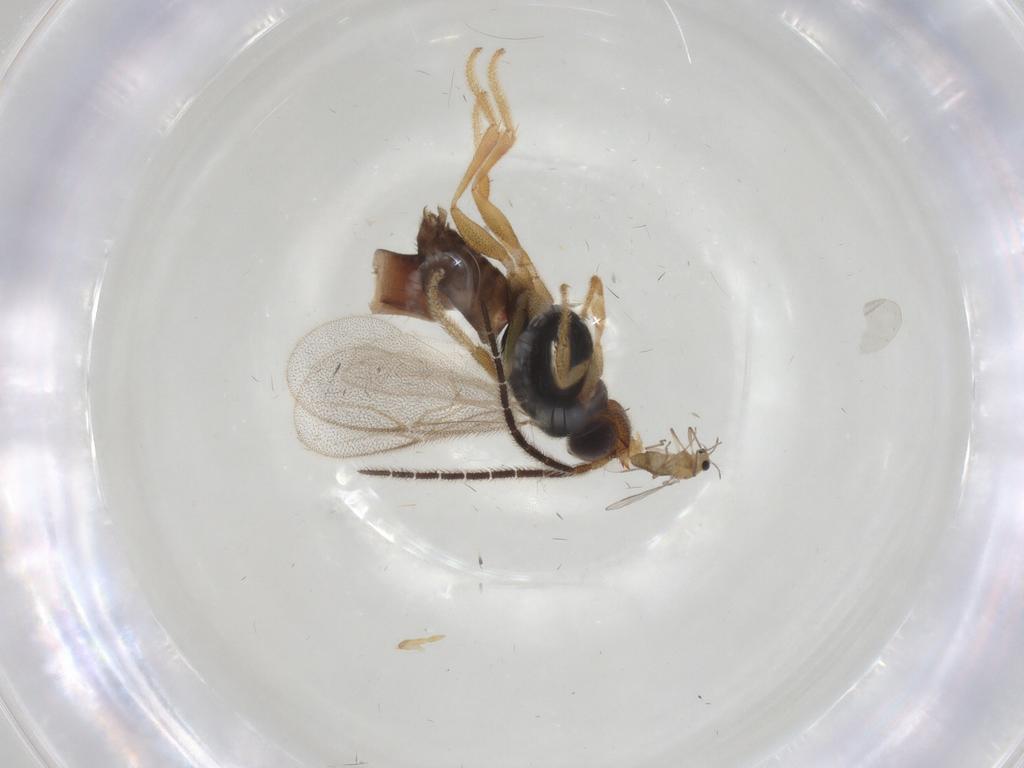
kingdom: Animalia
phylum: Arthropoda
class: Insecta
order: Hymenoptera
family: Dryinidae
